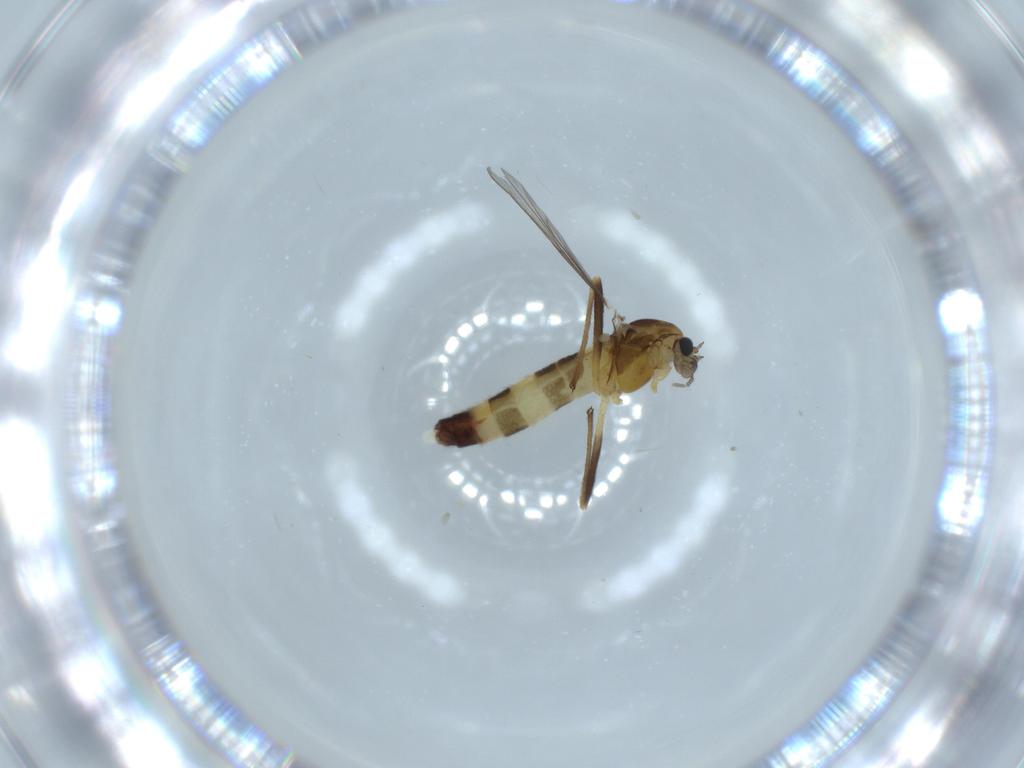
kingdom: Animalia
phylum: Arthropoda
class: Insecta
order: Diptera
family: Chironomidae
